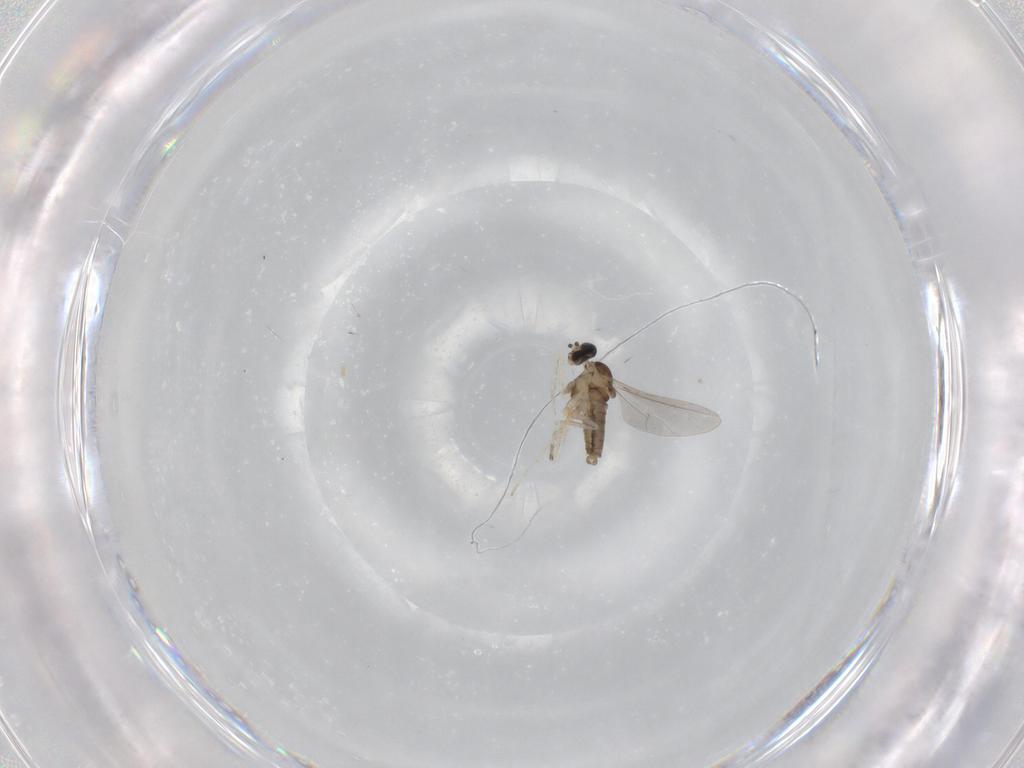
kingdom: Animalia
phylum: Arthropoda
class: Insecta
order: Diptera
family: Cecidomyiidae
